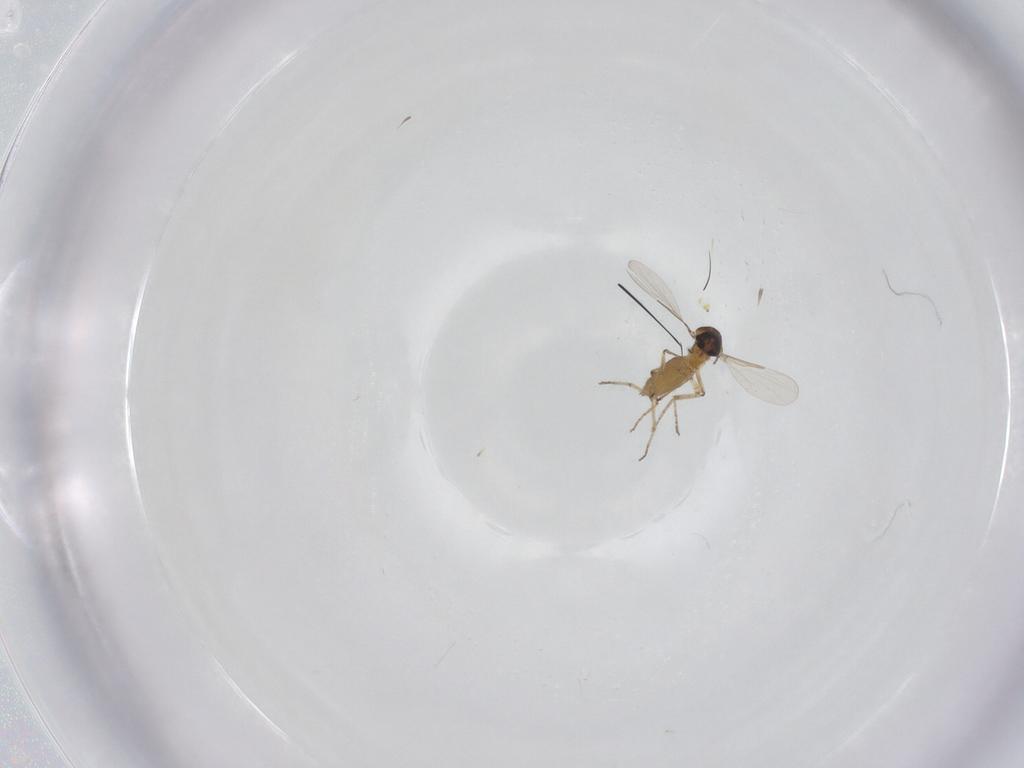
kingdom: Animalia
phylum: Arthropoda
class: Insecta
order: Diptera
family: Ceratopogonidae
